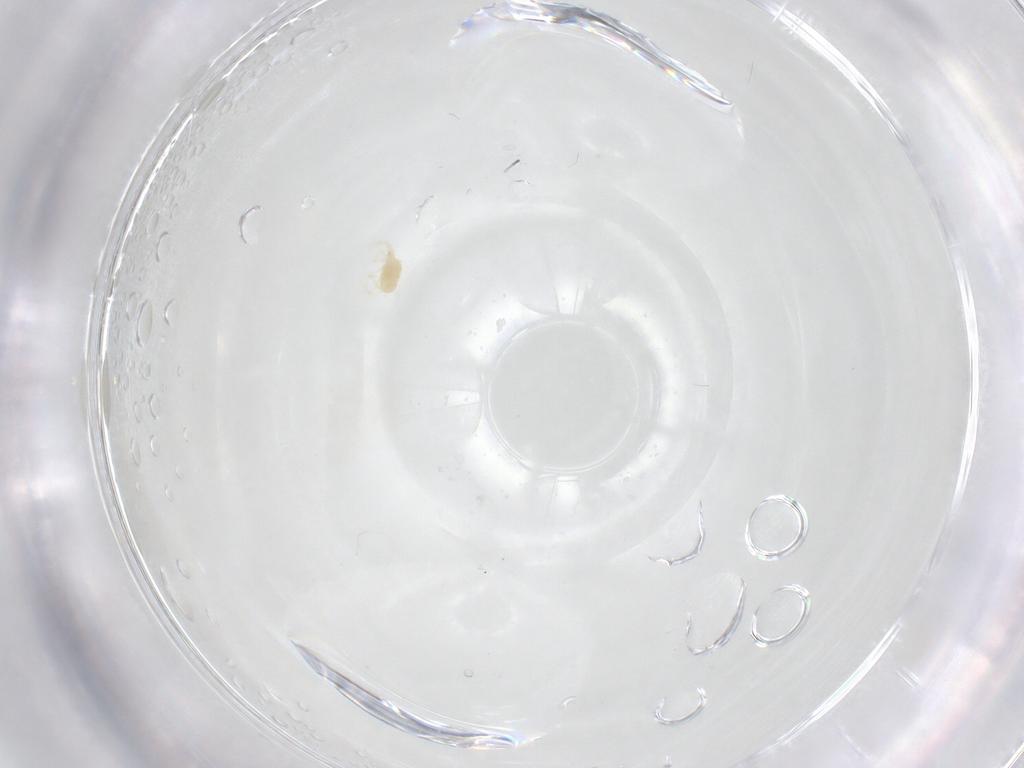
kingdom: Animalia
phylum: Arthropoda
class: Arachnida
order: Trombidiformes
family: Tetranychidae
